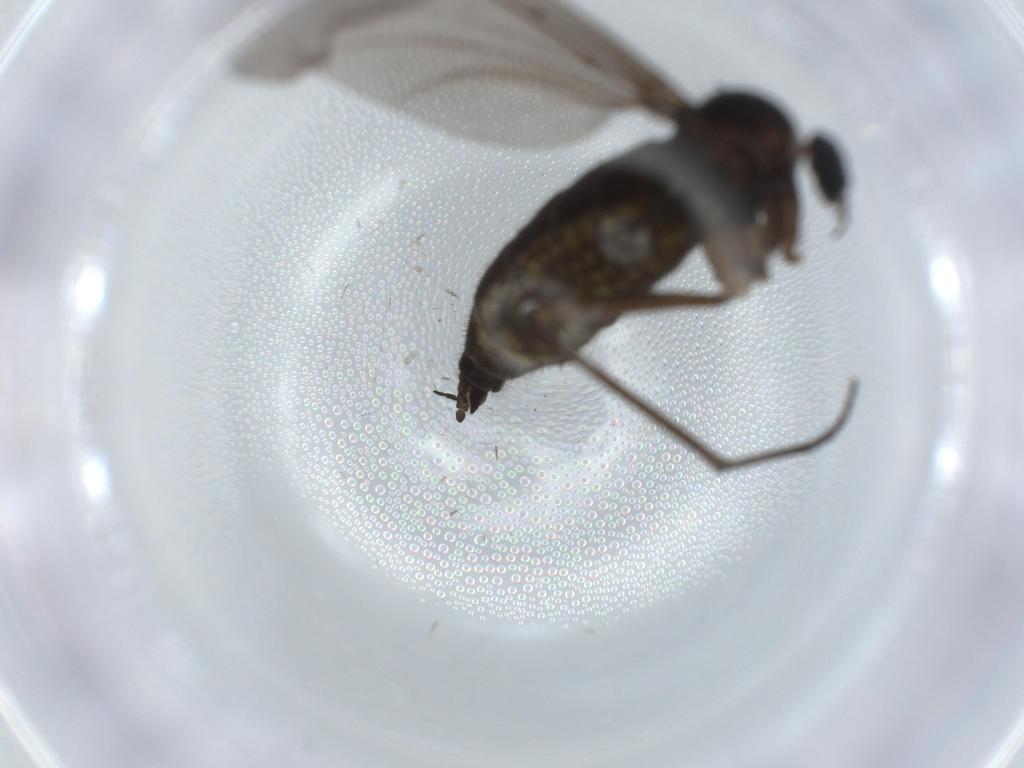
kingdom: Animalia
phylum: Arthropoda
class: Insecta
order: Diptera
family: Sciaridae
